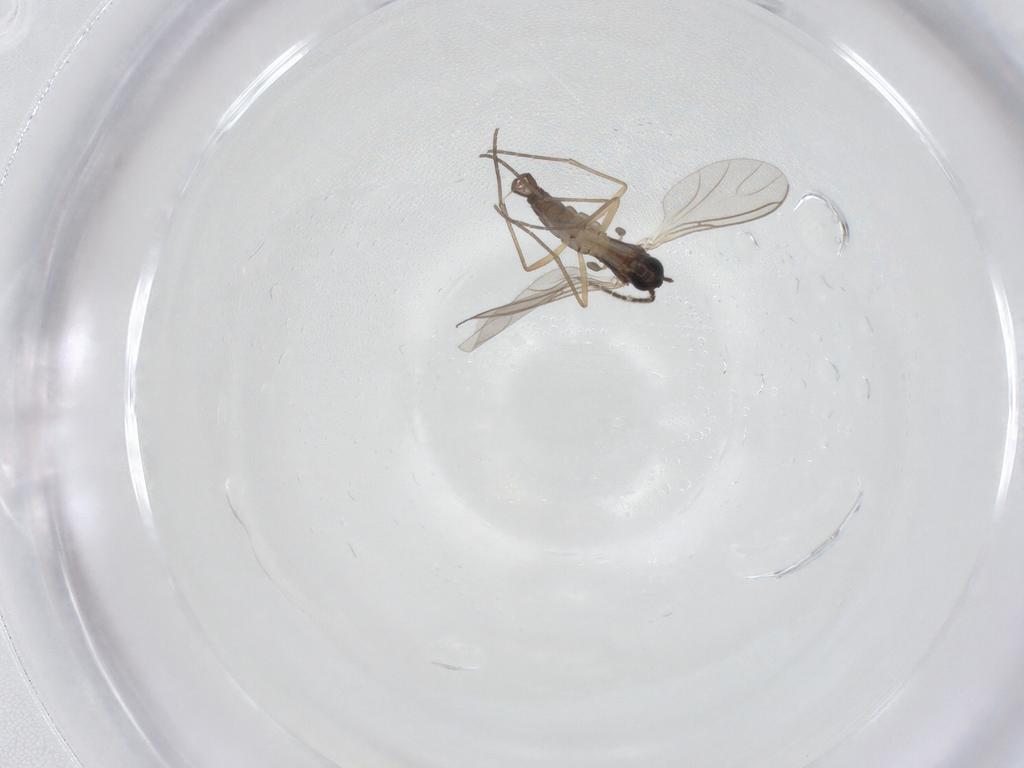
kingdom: Animalia
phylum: Arthropoda
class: Insecta
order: Diptera
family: Sciaridae
